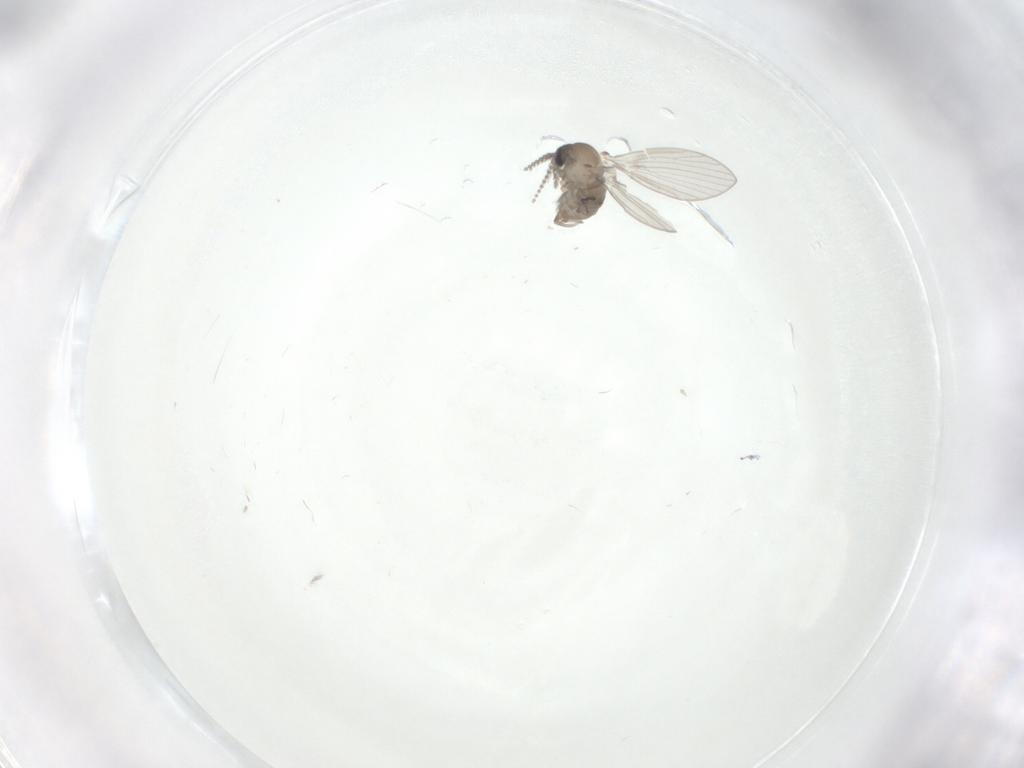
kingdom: Animalia
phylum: Arthropoda
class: Insecta
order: Diptera
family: Psychodidae
